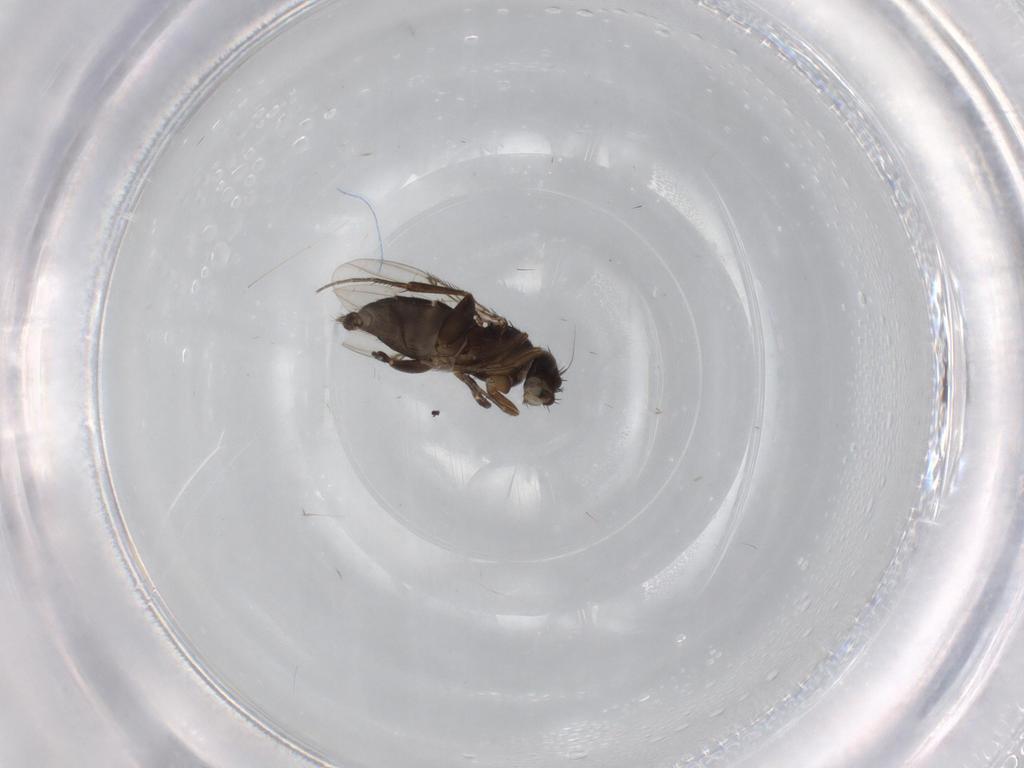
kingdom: Animalia
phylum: Arthropoda
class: Insecta
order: Diptera
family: Phoridae
